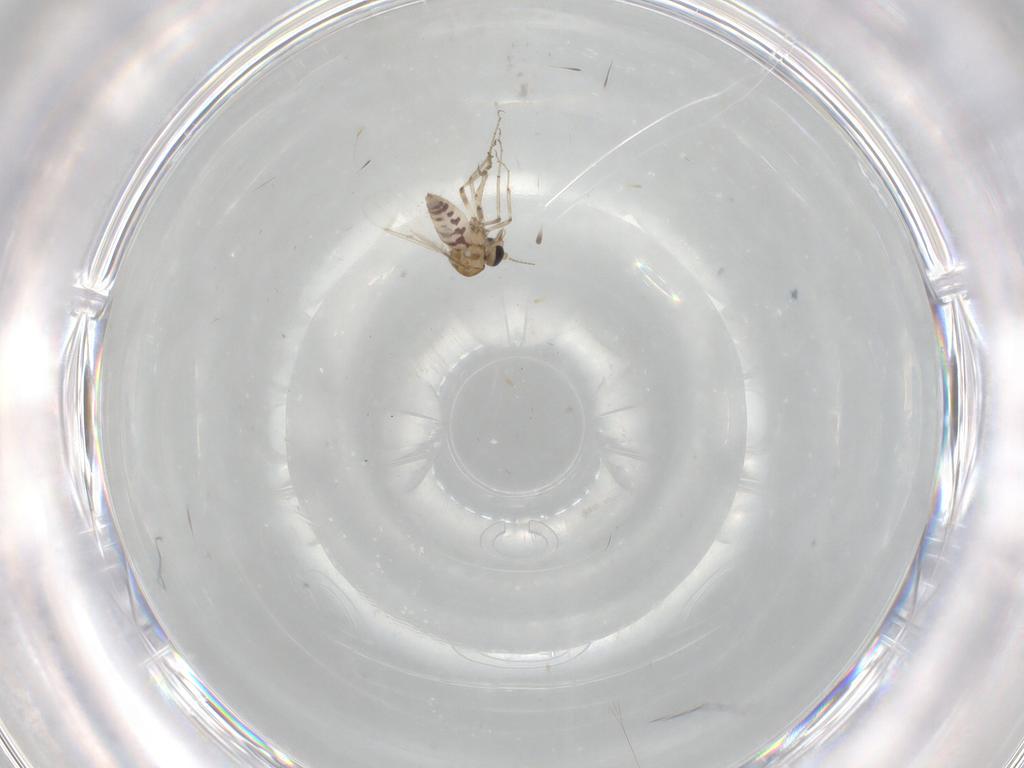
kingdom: Animalia
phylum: Arthropoda
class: Insecta
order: Diptera
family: Ceratopogonidae
